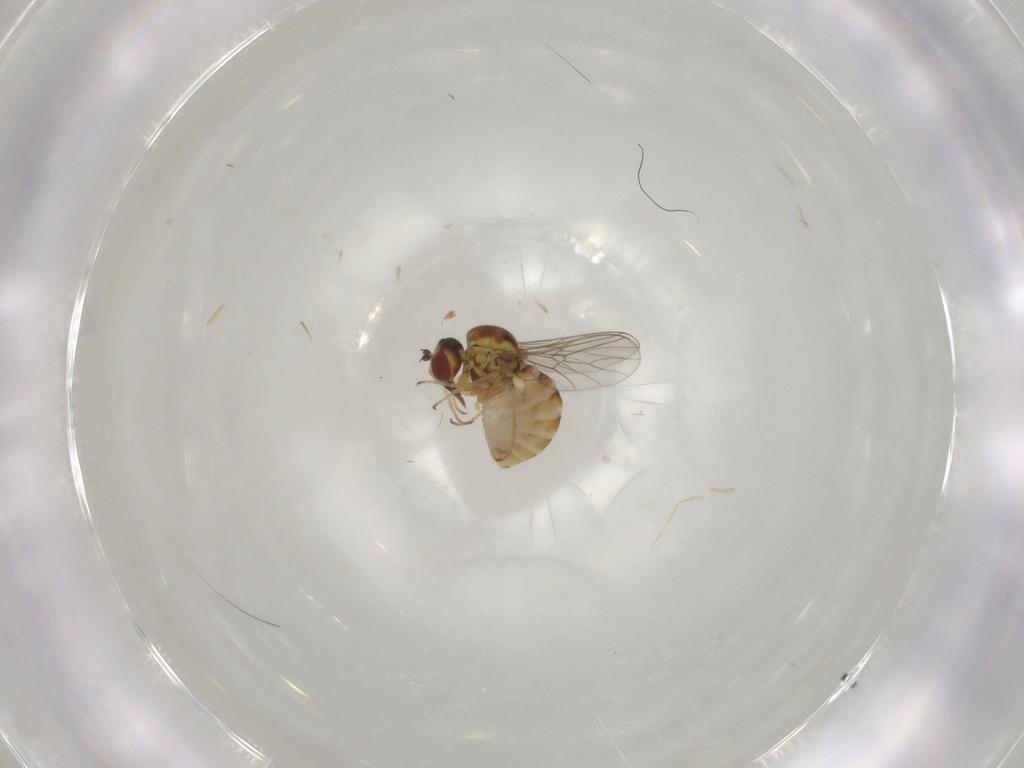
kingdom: Animalia
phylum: Arthropoda
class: Insecta
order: Diptera
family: Mythicomyiidae
